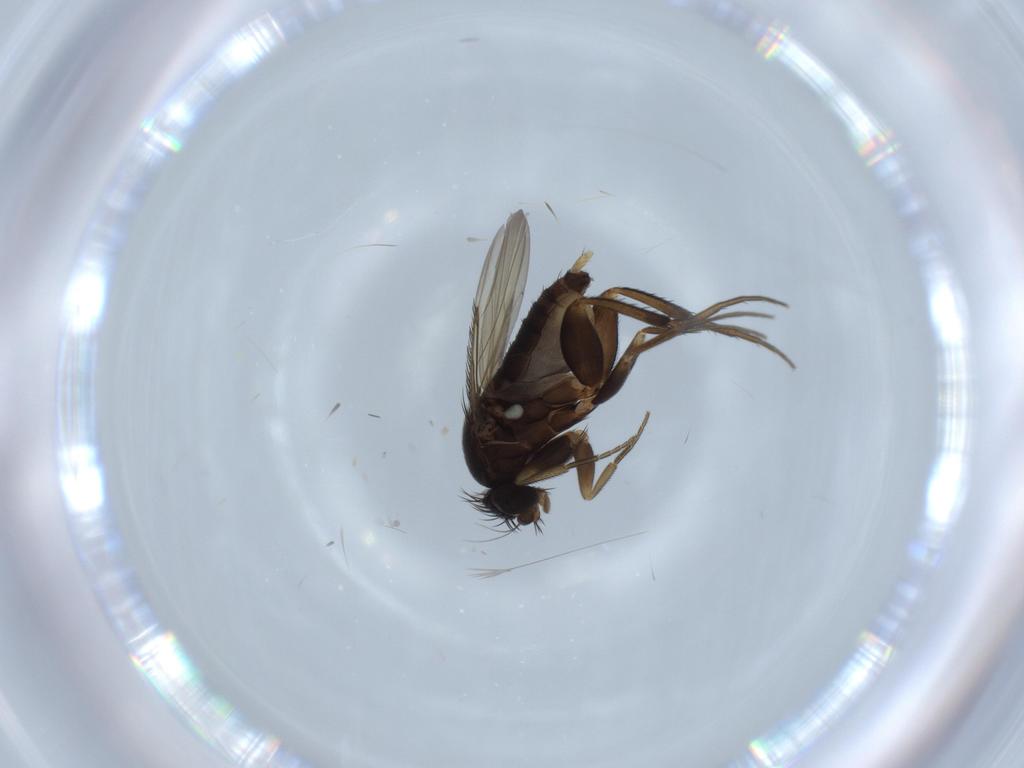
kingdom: Animalia
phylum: Arthropoda
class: Insecta
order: Diptera
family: Phoridae
